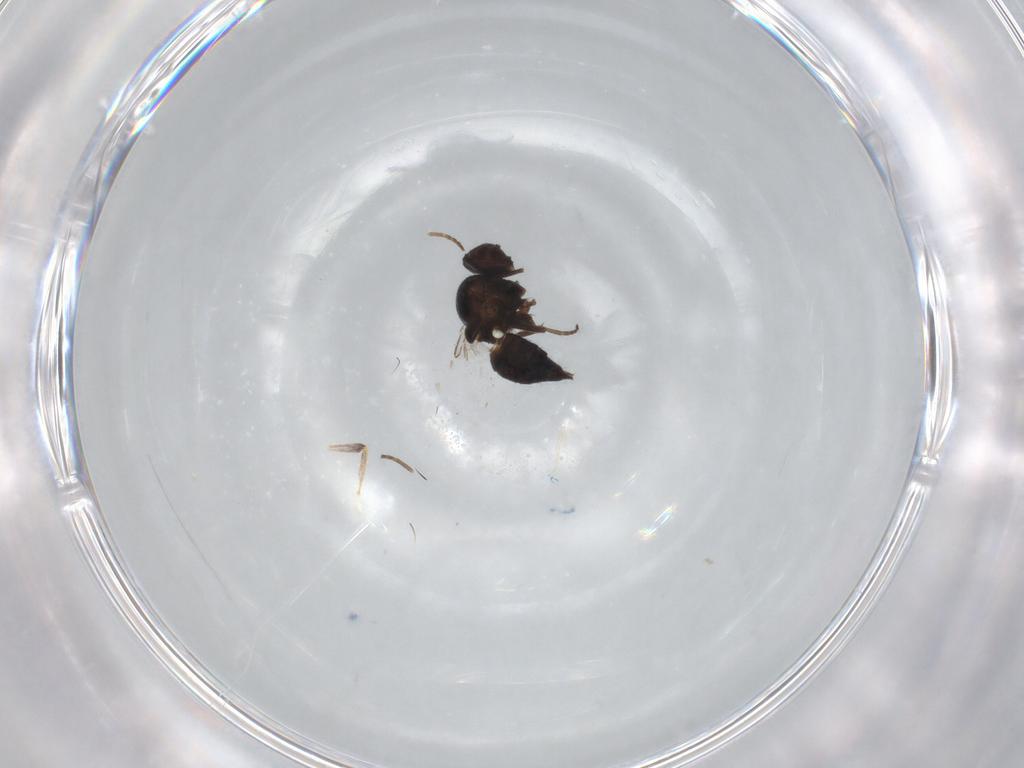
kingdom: Animalia
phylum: Arthropoda
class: Insecta
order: Diptera
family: Agromyzidae
